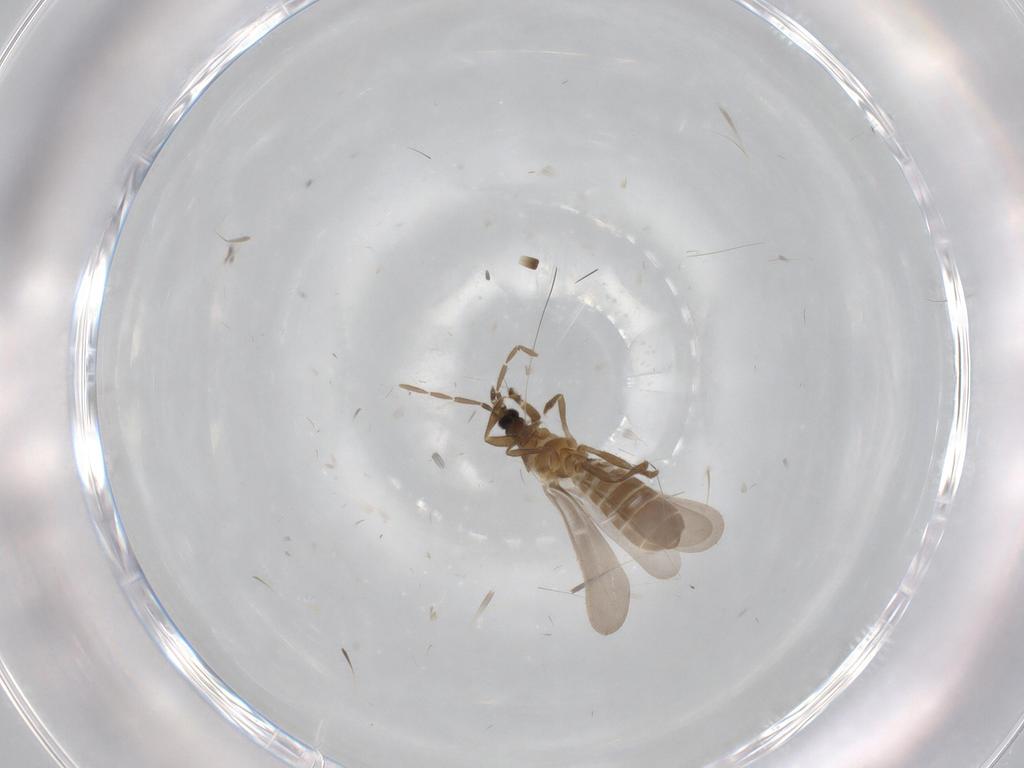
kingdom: Animalia
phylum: Arthropoda
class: Insecta
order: Hemiptera
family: Enicocephalidae
